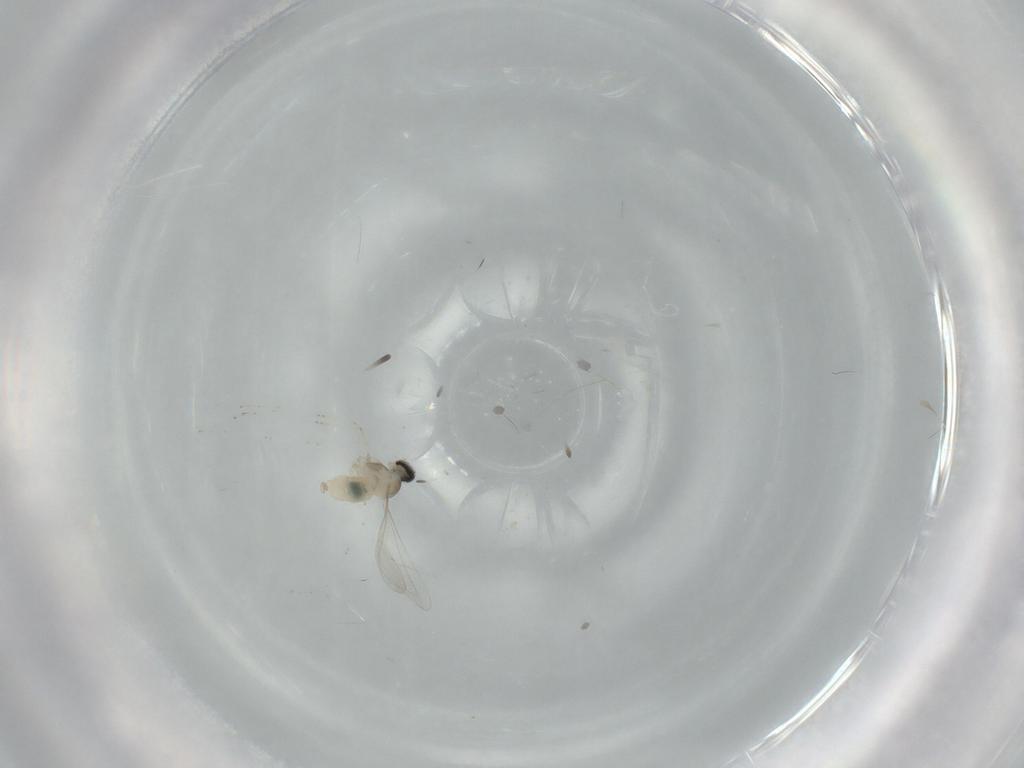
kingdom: Animalia
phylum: Arthropoda
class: Insecta
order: Diptera
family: Cecidomyiidae
